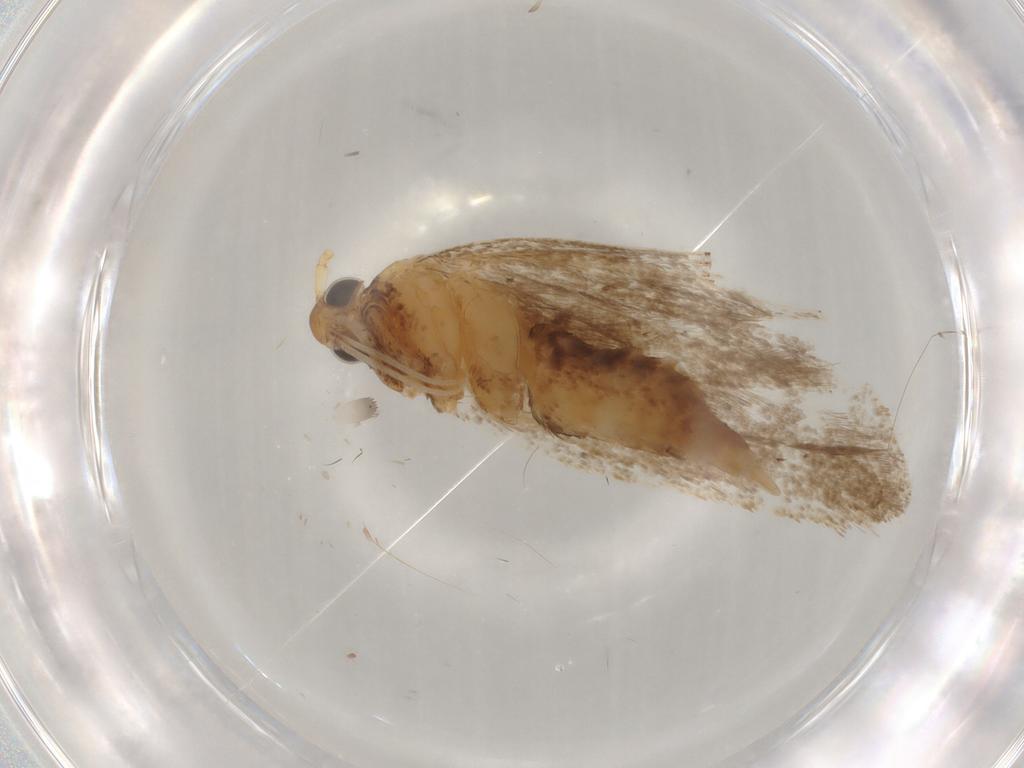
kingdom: Animalia
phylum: Arthropoda
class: Insecta
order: Lepidoptera
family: Lecithoceridae
